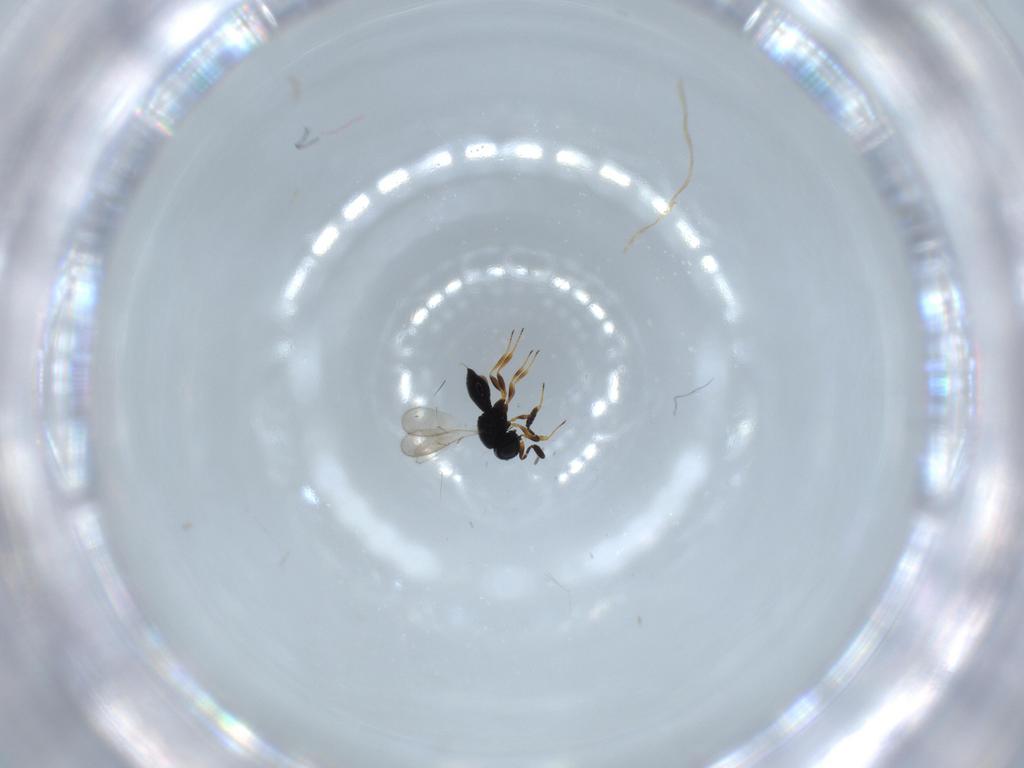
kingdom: Animalia
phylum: Arthropoda
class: Insecta
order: Hymenoptera
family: Scelionidae
